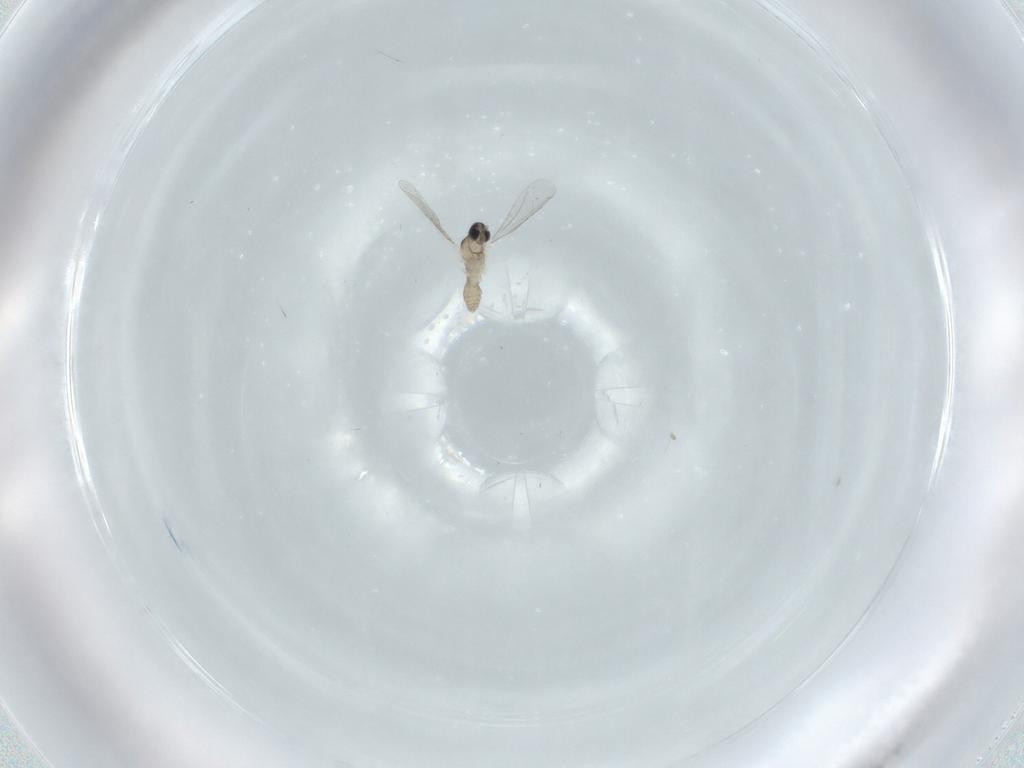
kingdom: Animalia
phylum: Arthropoda
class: Insecta
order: Diptera
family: Cecidomyiidae
